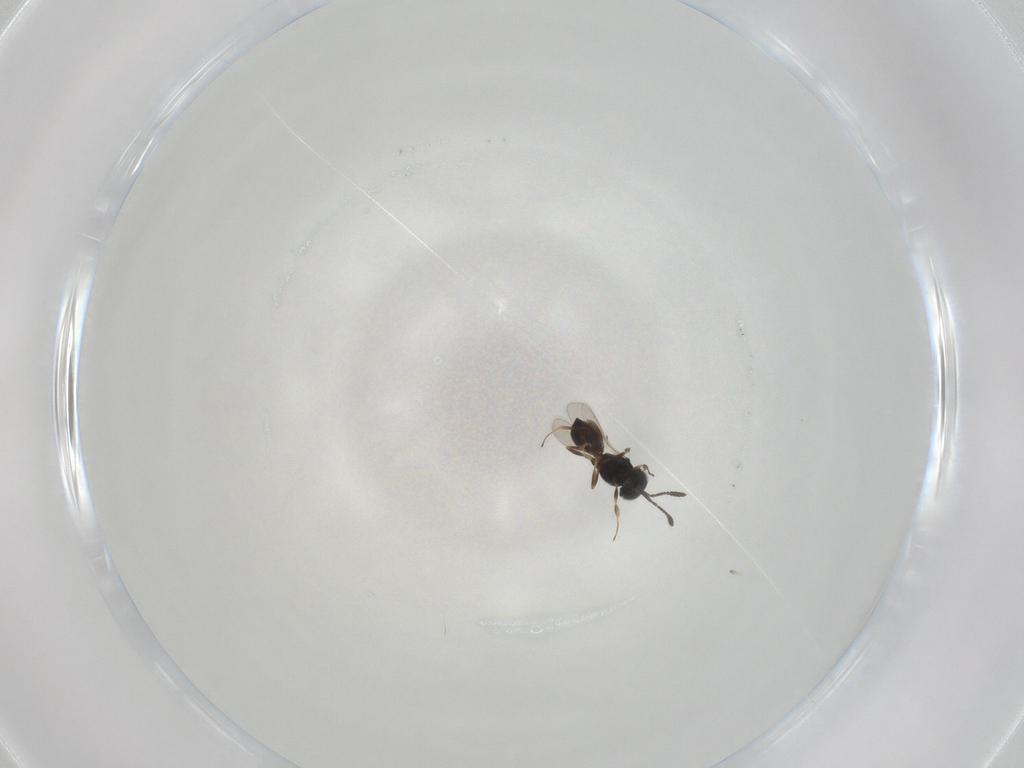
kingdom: Animalia
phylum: Arthropoda
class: Insecta
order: Hymenoptera
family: Scelionidae
